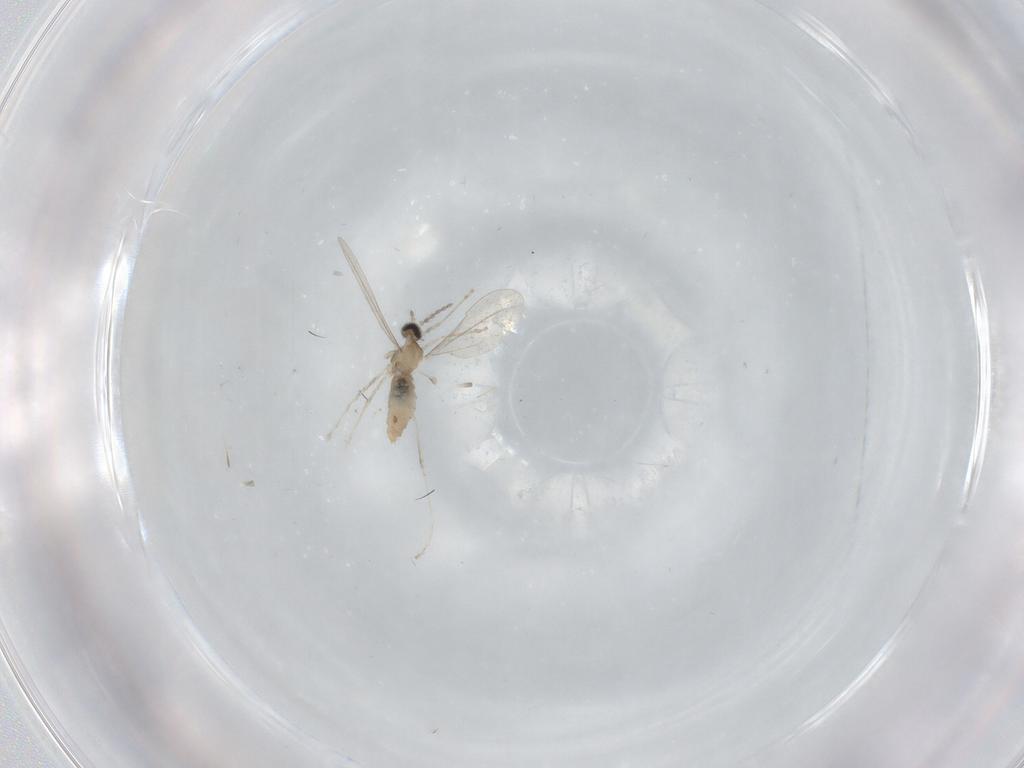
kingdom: Animalia
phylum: Arthropoda
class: Insecta
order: Diptera
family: Cecidomyiidae
